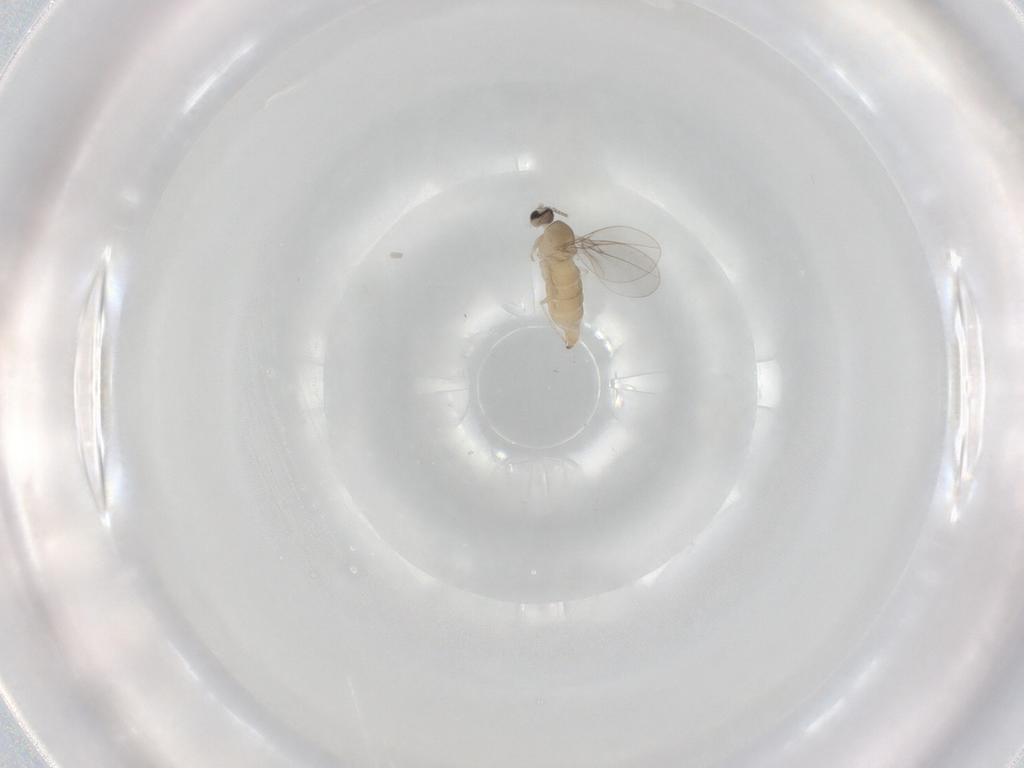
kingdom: Animalia
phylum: Arthropoda
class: Insecta
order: Diptera
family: Cecidomyiidae
